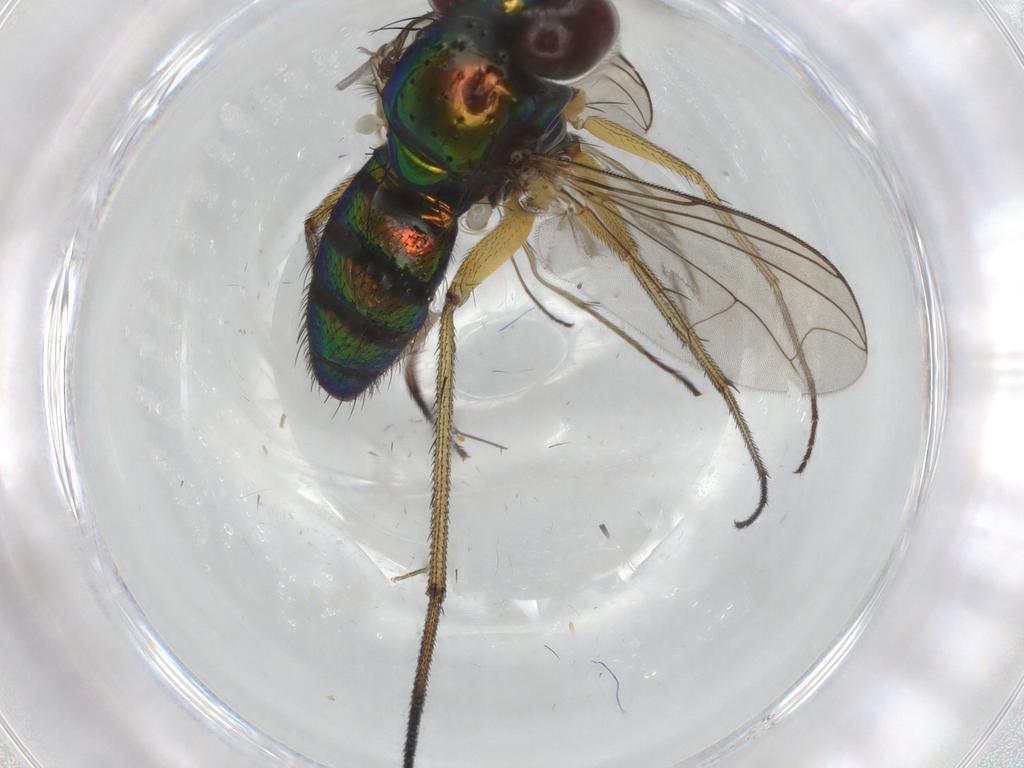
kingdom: Animalia
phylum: Arthropoda
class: Insecta
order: Diptera
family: Dolichopodidae
